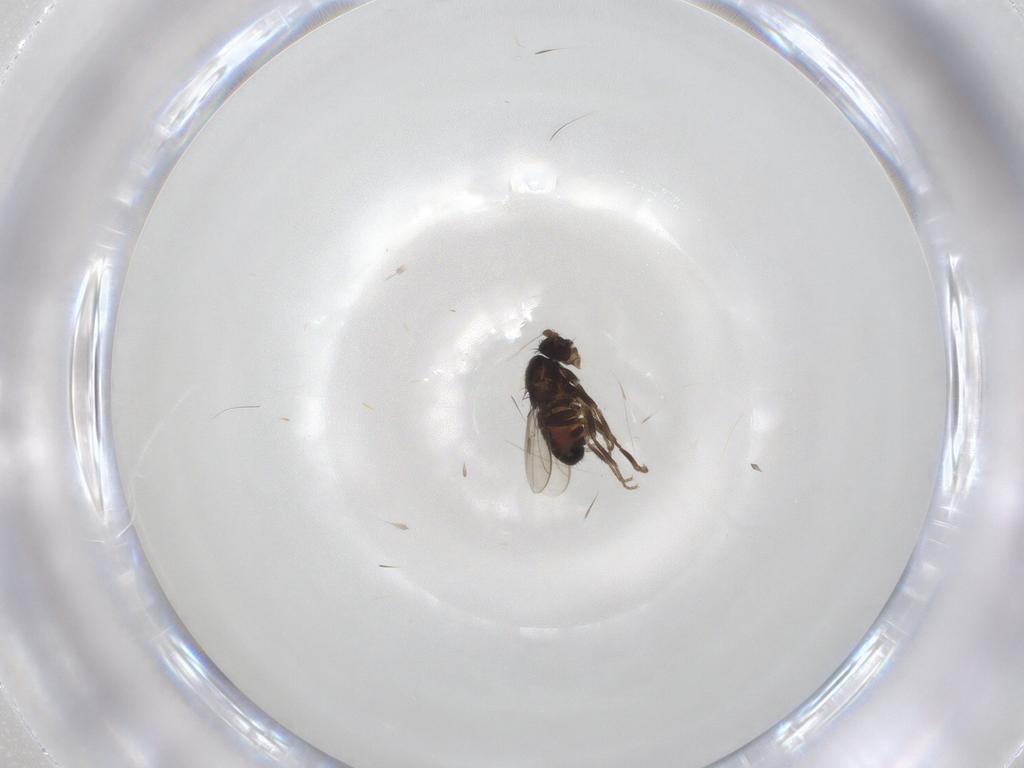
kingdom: Animalia
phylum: Arthropoda
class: Insecta
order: Diptera
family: Sphaeroceridae
